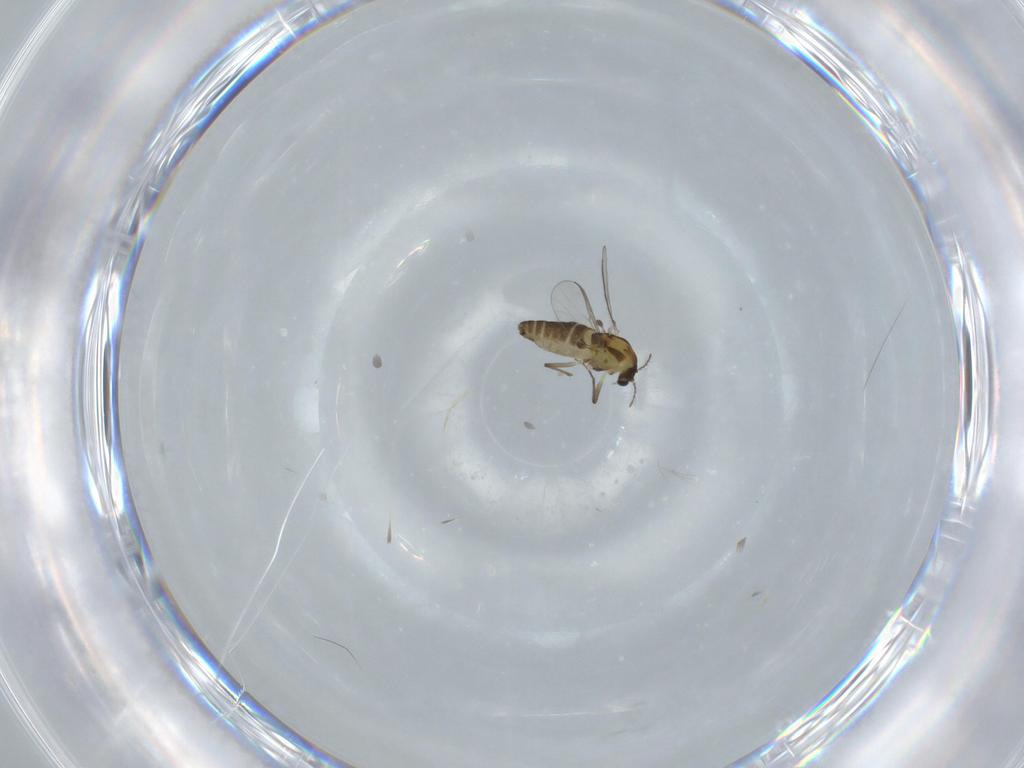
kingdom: Animalia
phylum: Arthropoda
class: Insecta
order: Diptera
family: Chironomidae
